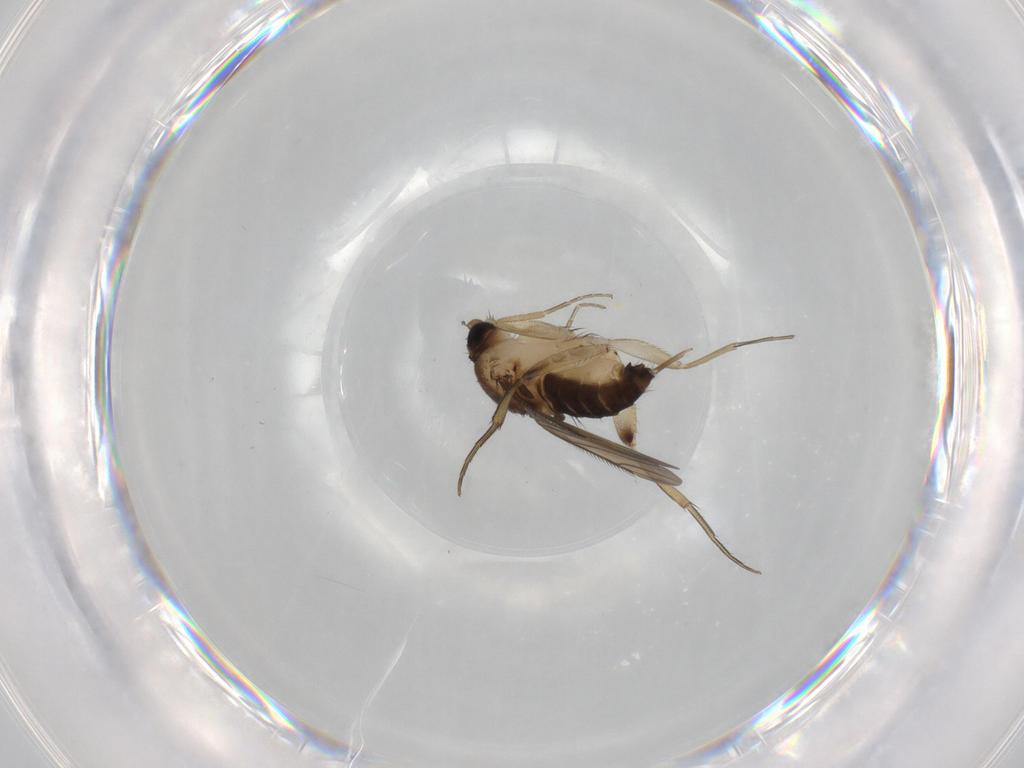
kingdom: Animalia
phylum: Arthropoda
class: Insecta
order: Diptera
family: Phoridae
